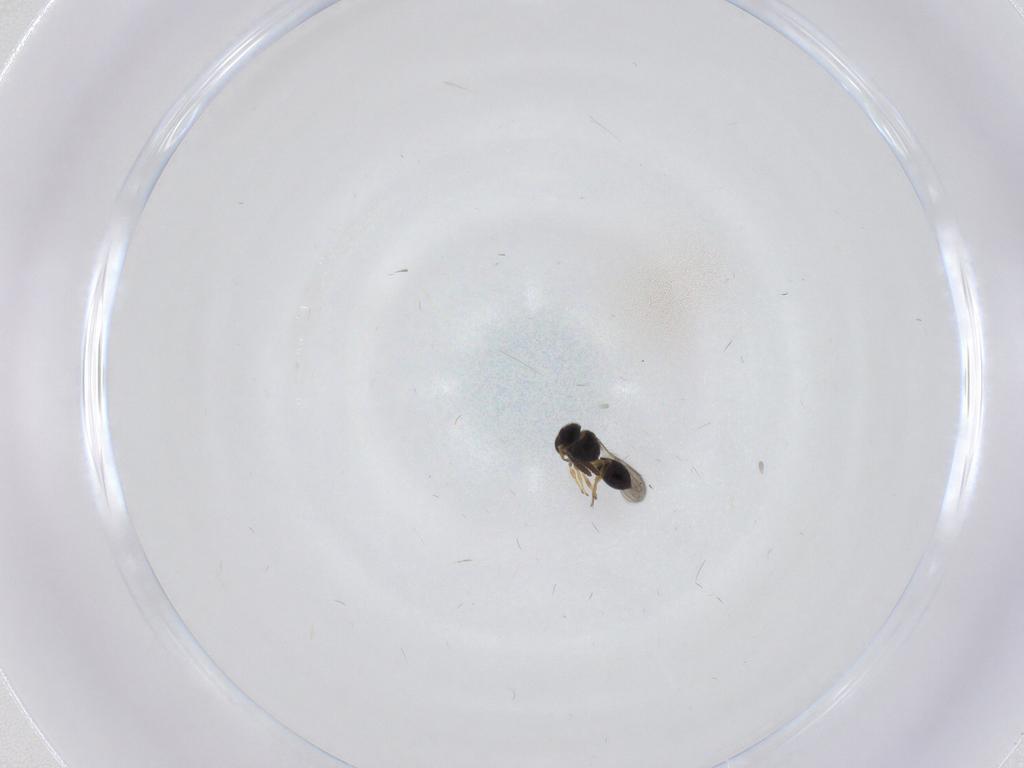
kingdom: Animalia
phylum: Arthropoda
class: Insecta
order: Hymenoptera
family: Scelionidae
